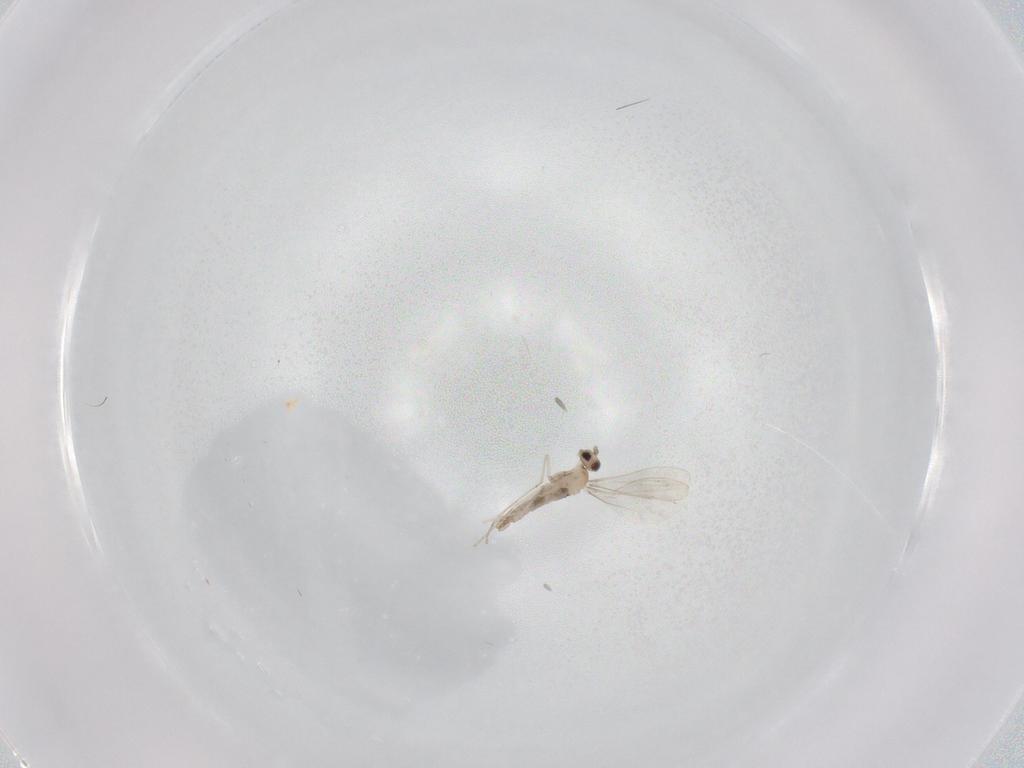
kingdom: Animalia
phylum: Arthropoda
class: Insecta
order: Diptera
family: Cecidomyiidae
